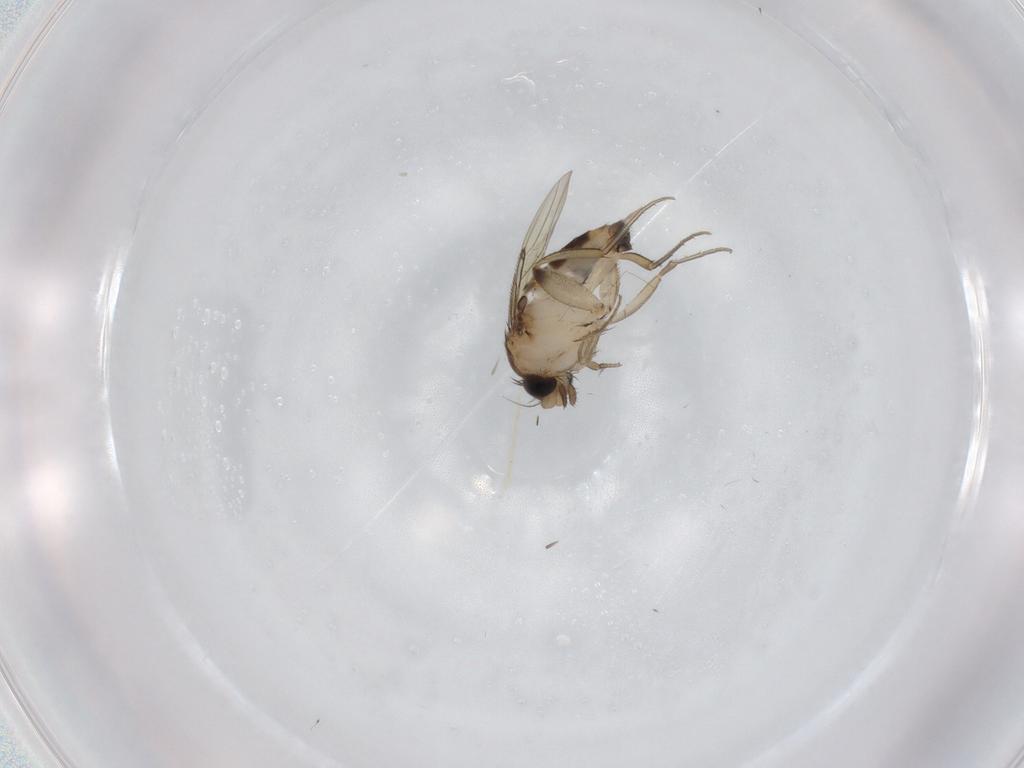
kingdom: Animalia
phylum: Arthropoda
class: Insecta
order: Diptera
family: Phoridae
